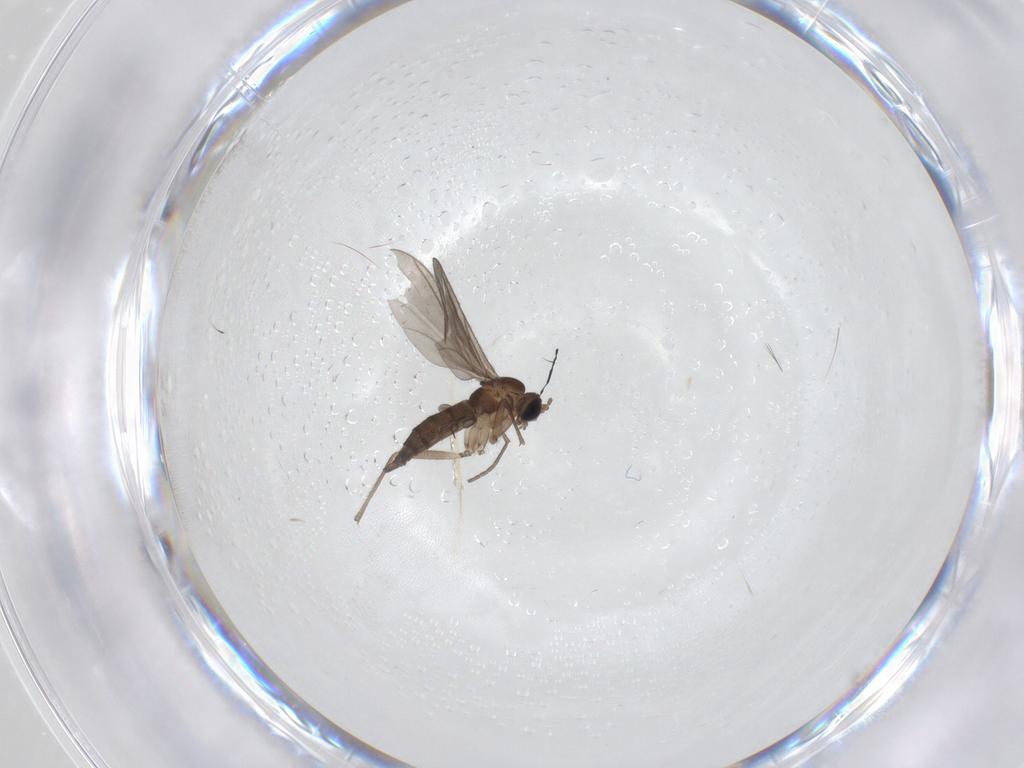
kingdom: Animalia
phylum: Arthropoda
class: Insecta
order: Diptera
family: Sciaridae
